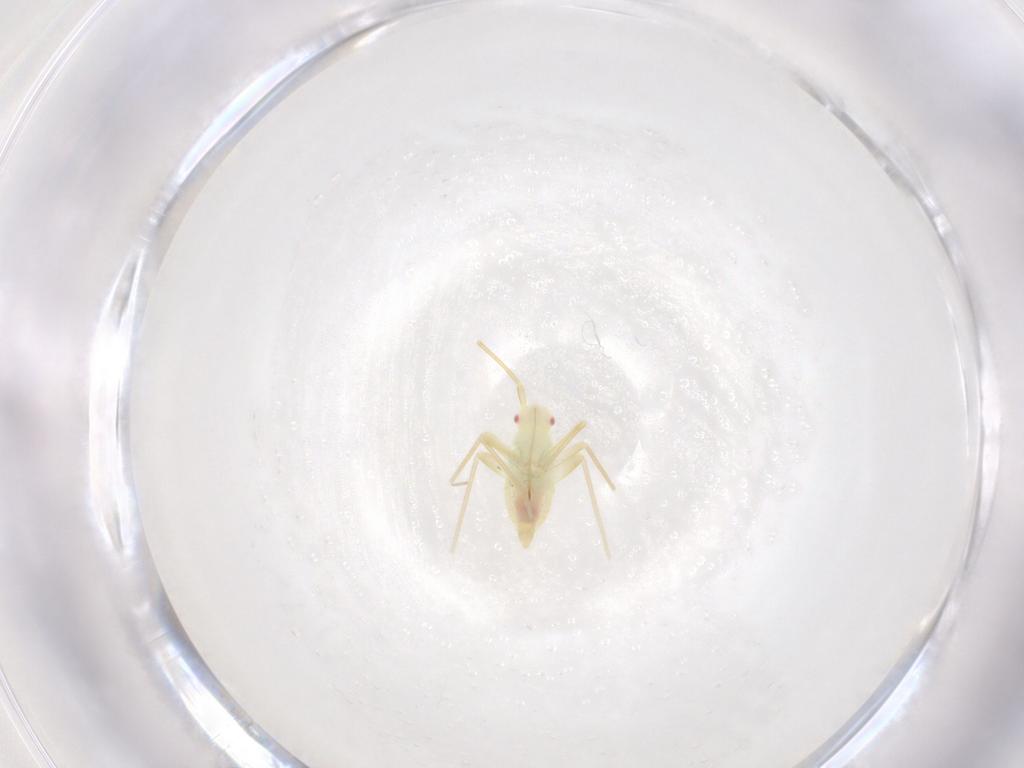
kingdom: Animalia
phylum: Arthropoda
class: Insecta
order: Hemiptera
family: Miridae
